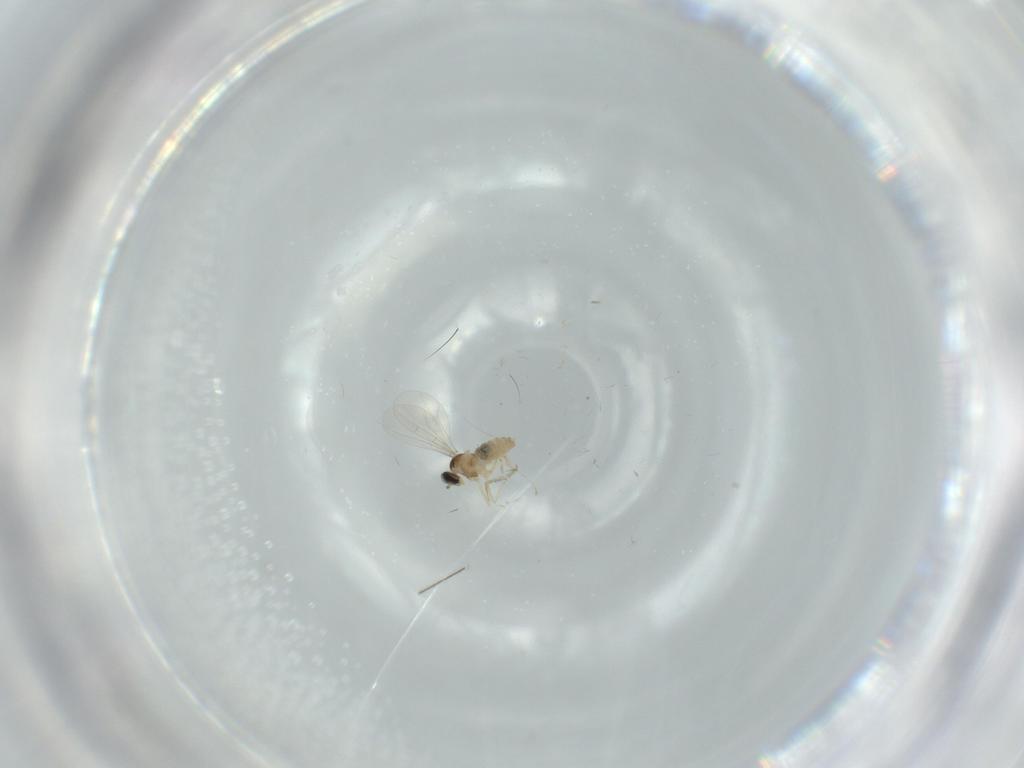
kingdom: Animalia
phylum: Arthropoda
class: Insecta
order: Diptera
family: Cecidomyiidae
